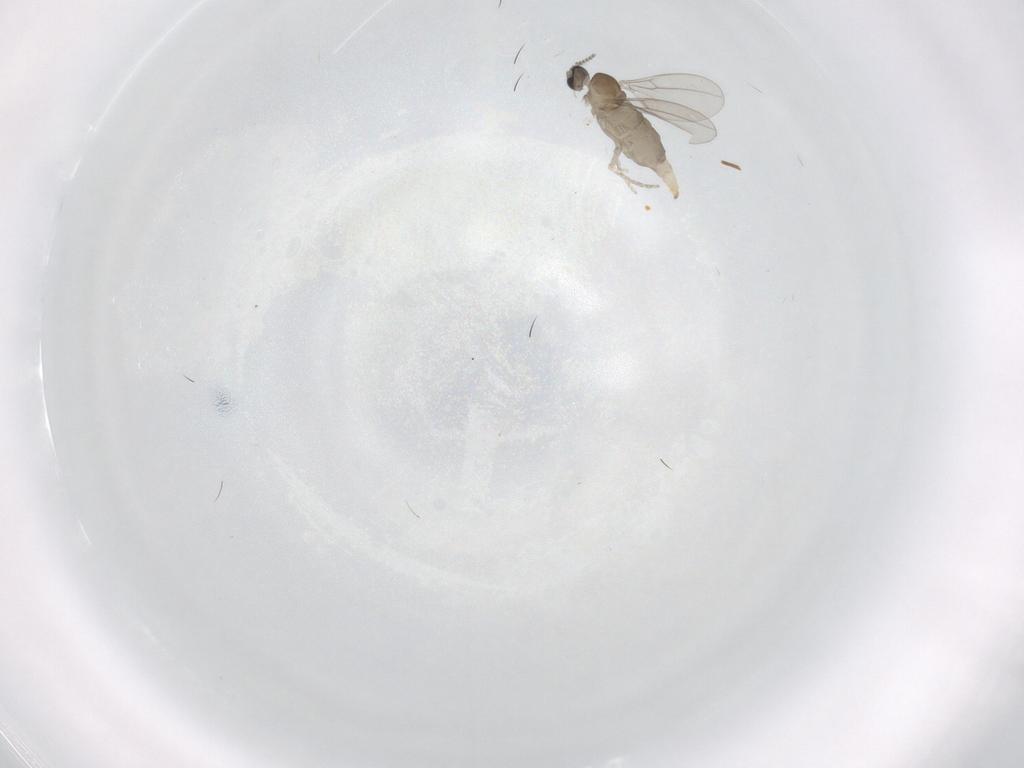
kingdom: Animalia
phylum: Arthropoda
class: Insecta
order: Diptera
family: Cecidomyiidae
